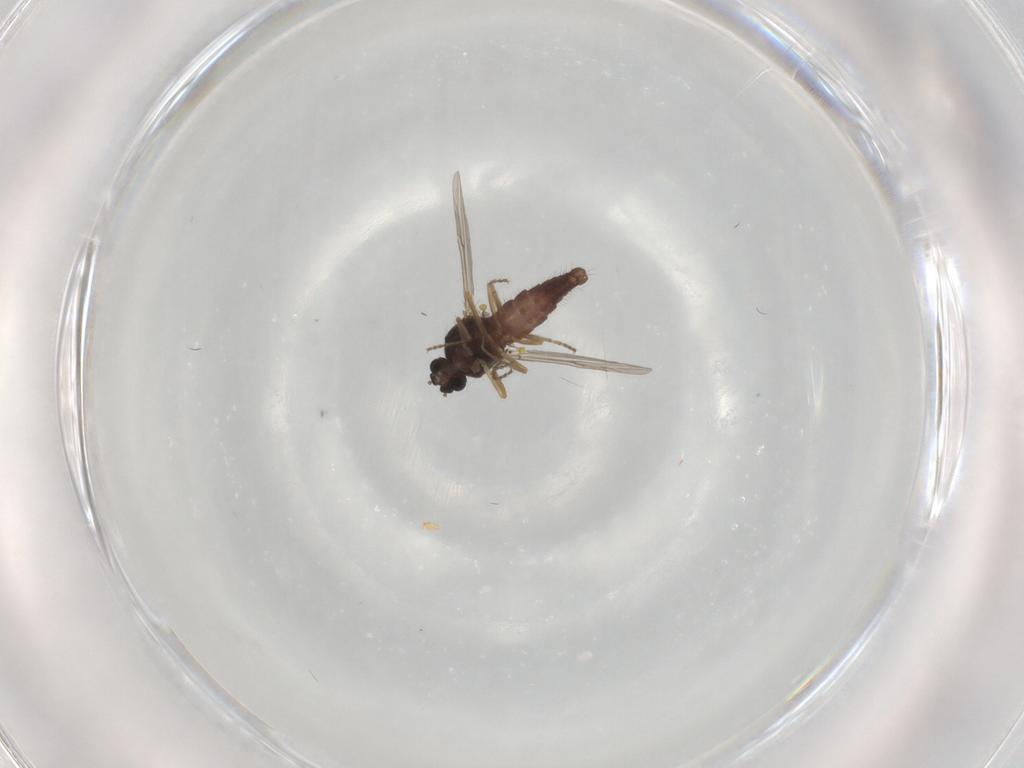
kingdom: Animalia
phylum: Arthropoda
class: Insecta
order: Diptera
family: Ceratopogonidae
